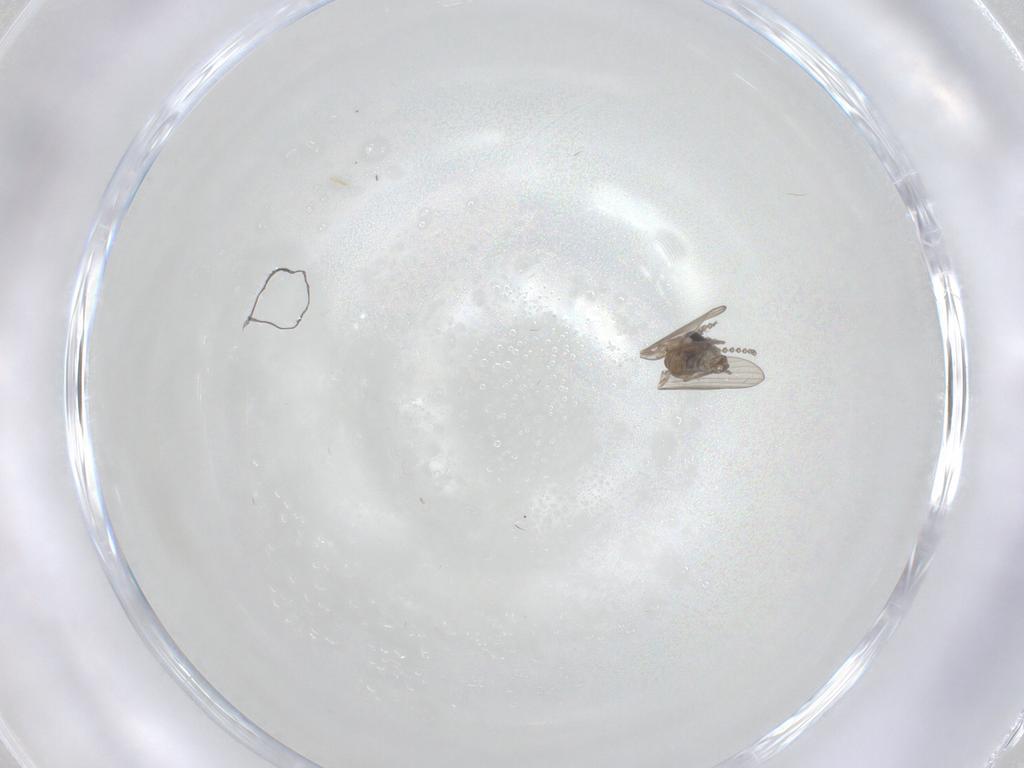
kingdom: Animalia
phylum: Arthropoda
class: Insecta
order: Diptera
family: Psychodidae
